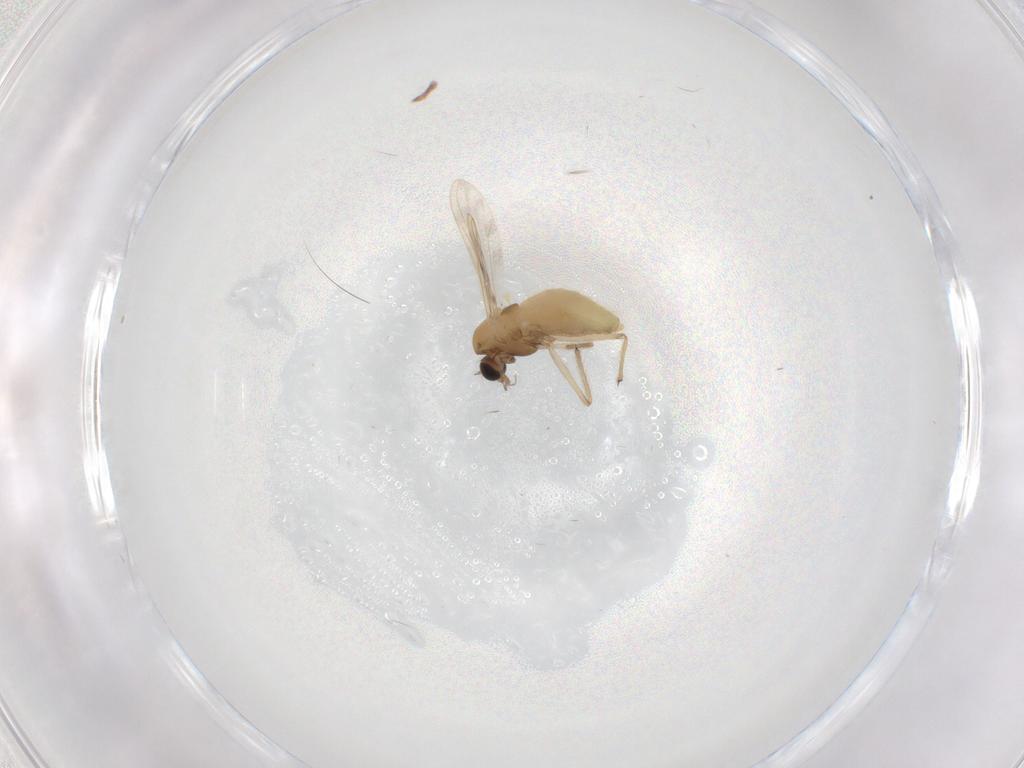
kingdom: Animalia
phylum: Arthropoda
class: Insecta
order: Diptera
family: Chironomidae
